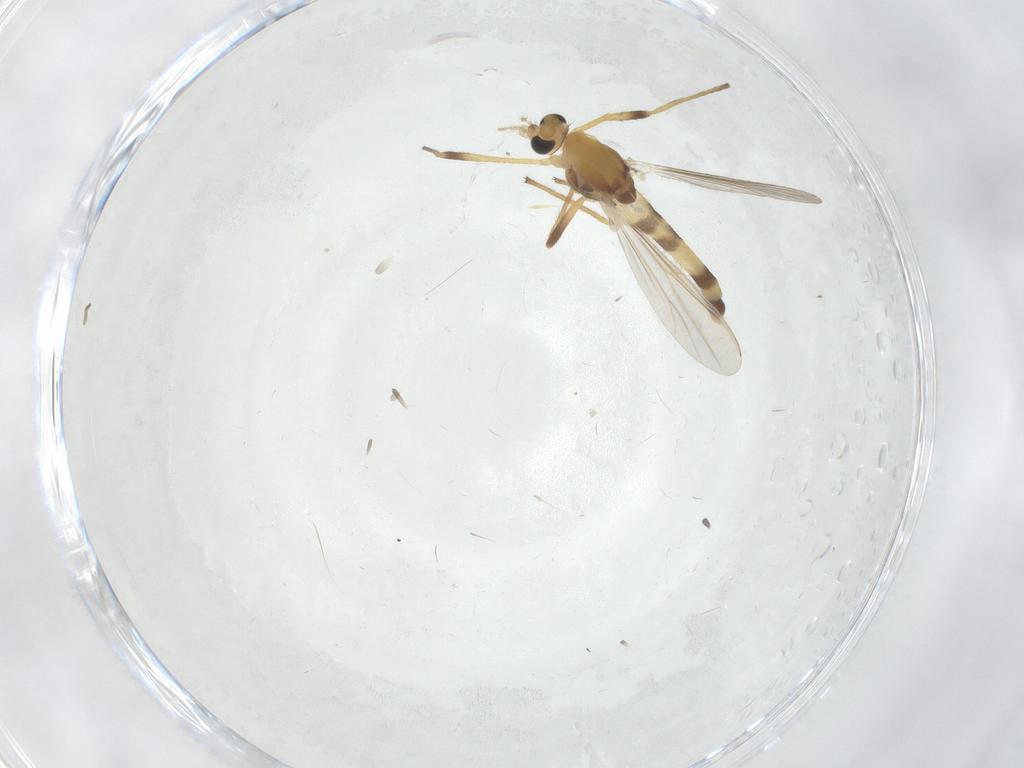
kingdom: Animalia
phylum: Arthropoda
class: Insecta
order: Diptera
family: Chironomidae
